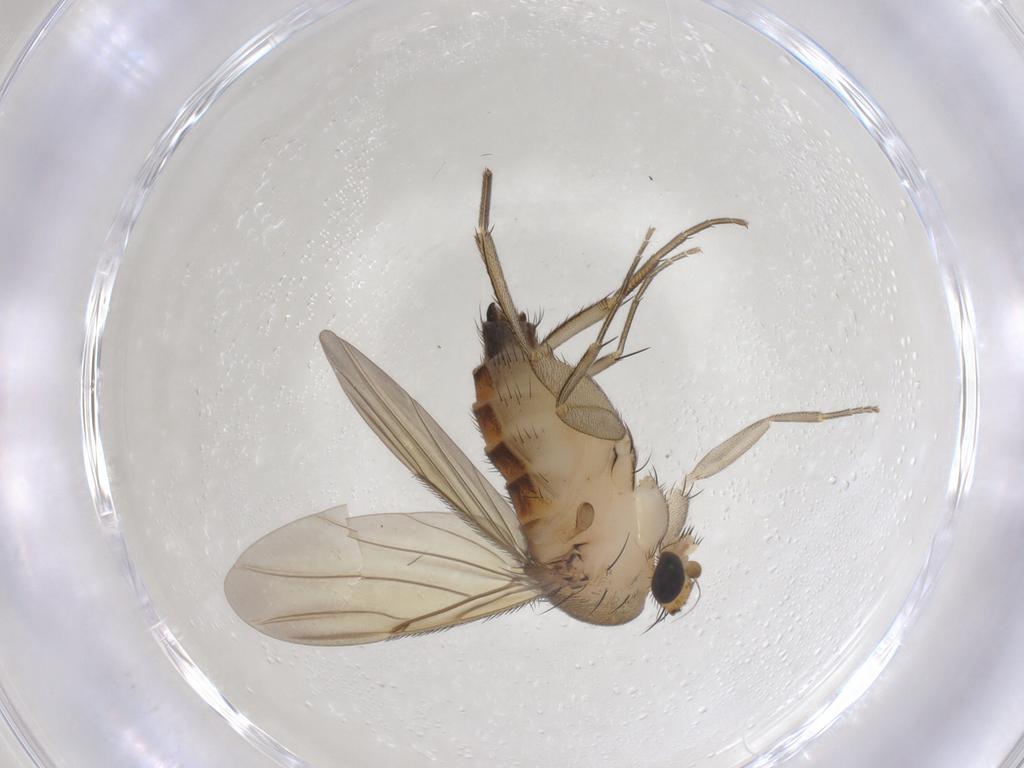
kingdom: Animalia
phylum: Arthropoda
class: Insecta
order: Diptera
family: Phoridae
